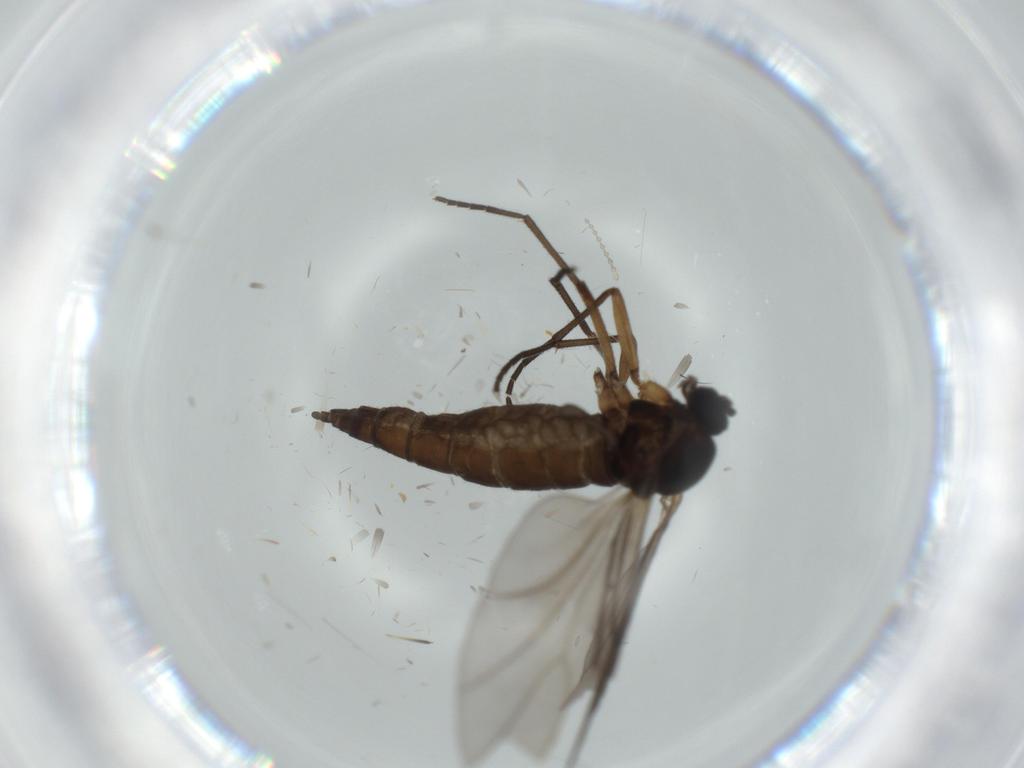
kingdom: Animalia
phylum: Arthropoda
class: Insecta
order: Diptera
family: Sciaridae
